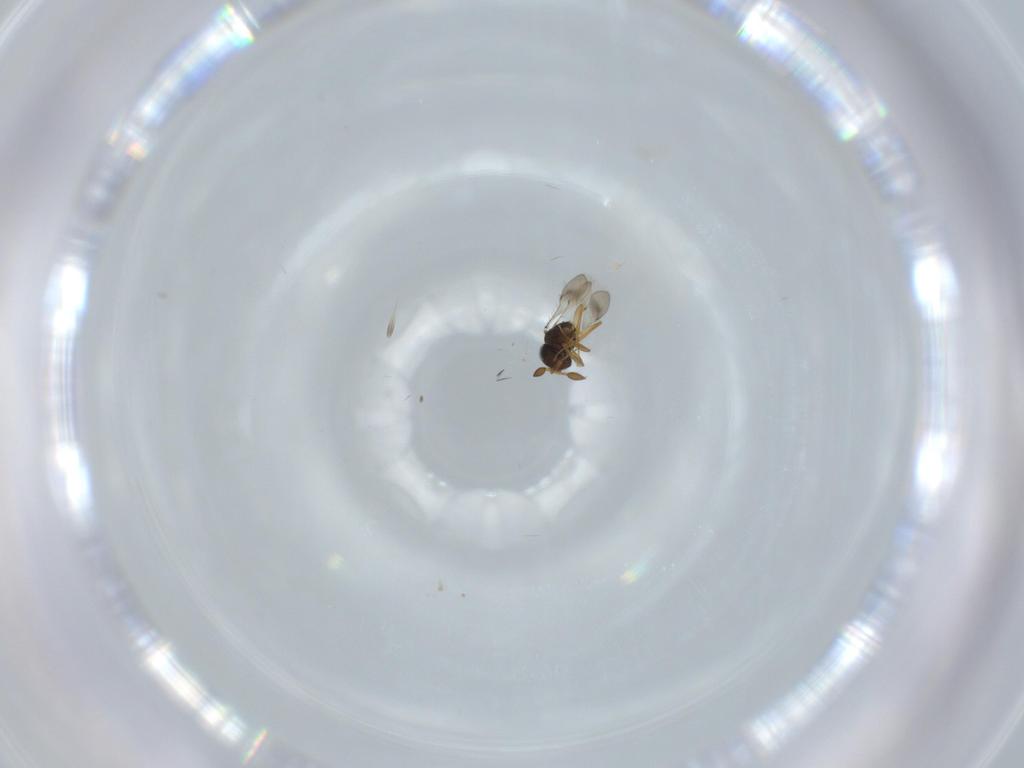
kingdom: Animalia
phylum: Arthropoda
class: Insecta
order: Hymenoptera
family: Scelionidae
